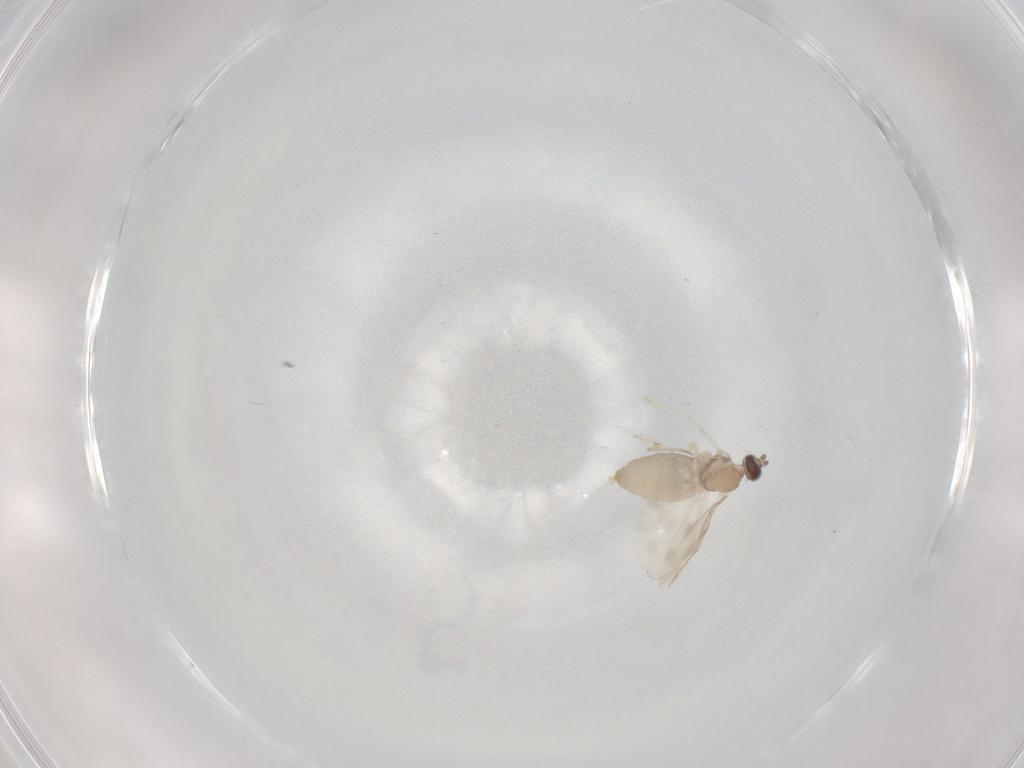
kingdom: Animalia
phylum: Arthropoda
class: Insecta
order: Diptera
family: Cecidomyiidae
